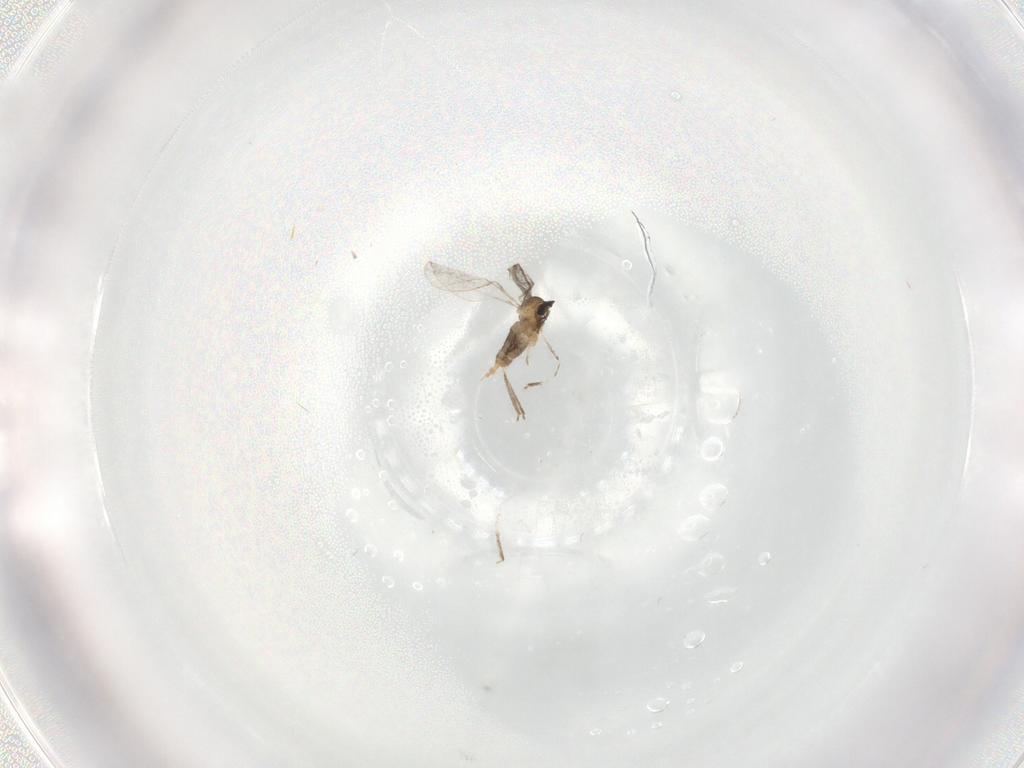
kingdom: Animalia
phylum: Arthropoda
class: Insecta
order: Diptera
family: Cecidomyiidae
